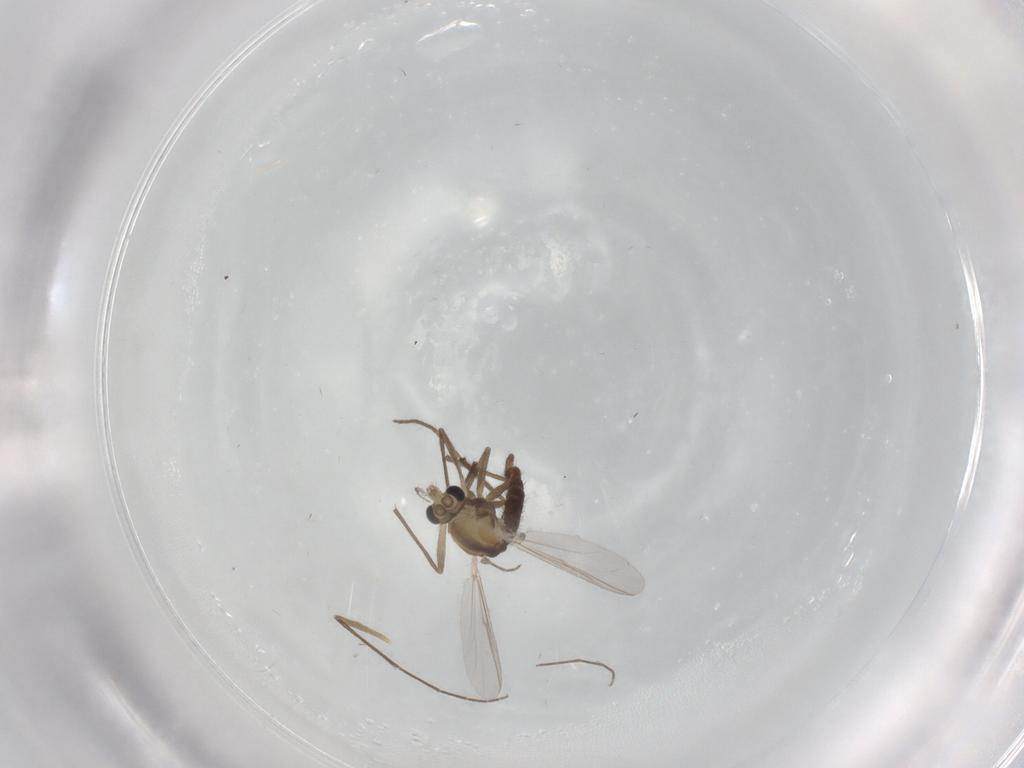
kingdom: Animalia
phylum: Arthropoda
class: Insecta
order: Diptera
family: Chironomidae
